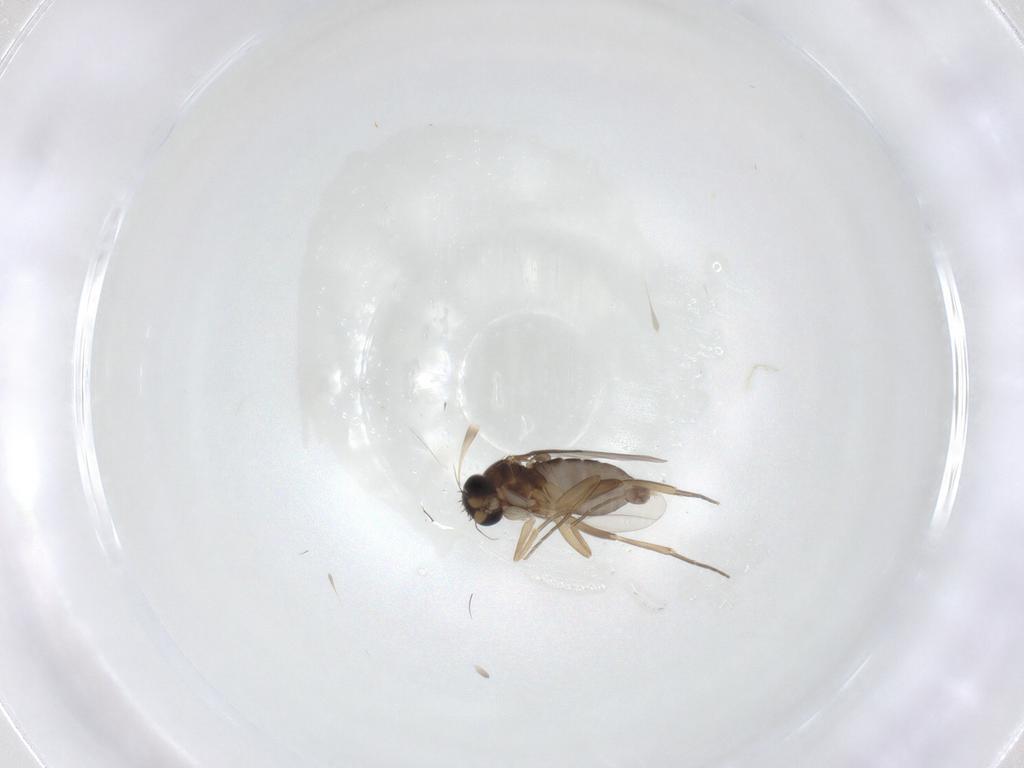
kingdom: Animalia
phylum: Arthropoda
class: Insecta
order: Diptera
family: Phoridae
